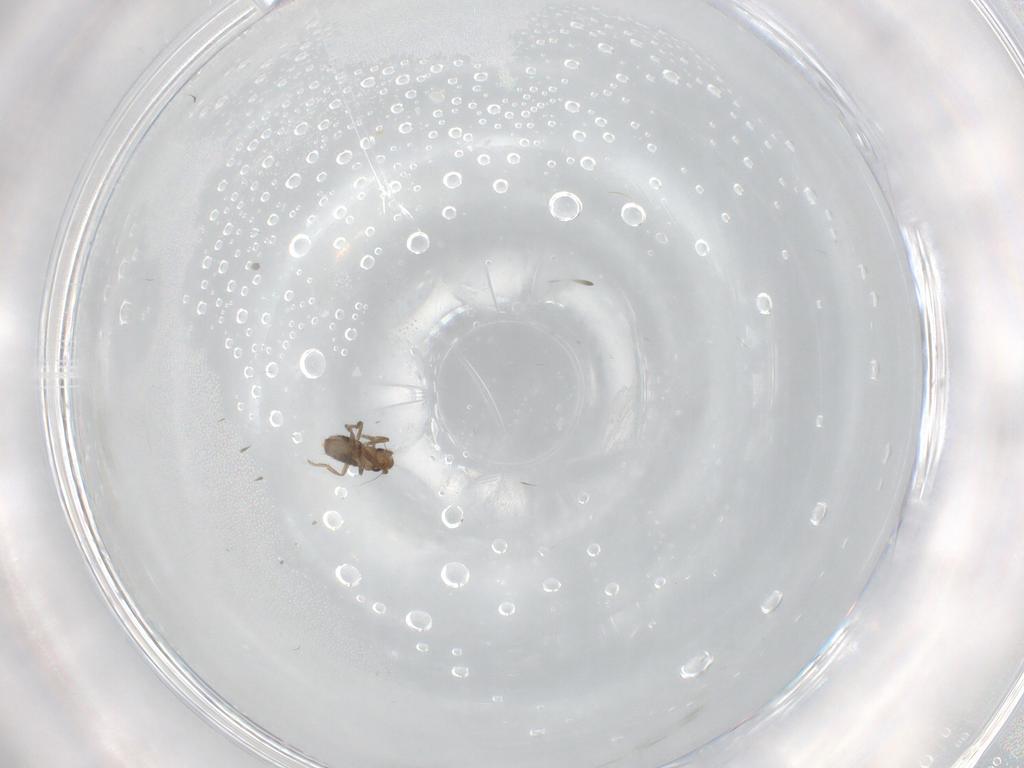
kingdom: Animalia
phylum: Arthropoda
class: Insecta
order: Diptera
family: Phoridae
